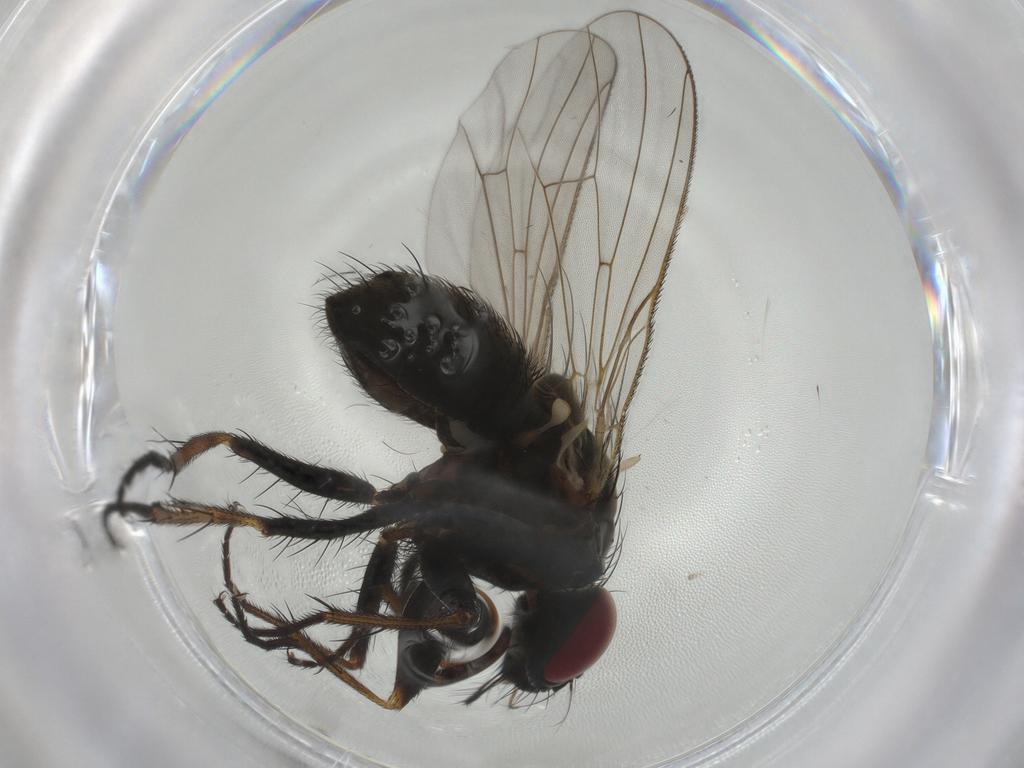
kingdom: Animalia
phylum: Arthropoda
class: Insecta
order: Diptera
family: Muscidae
